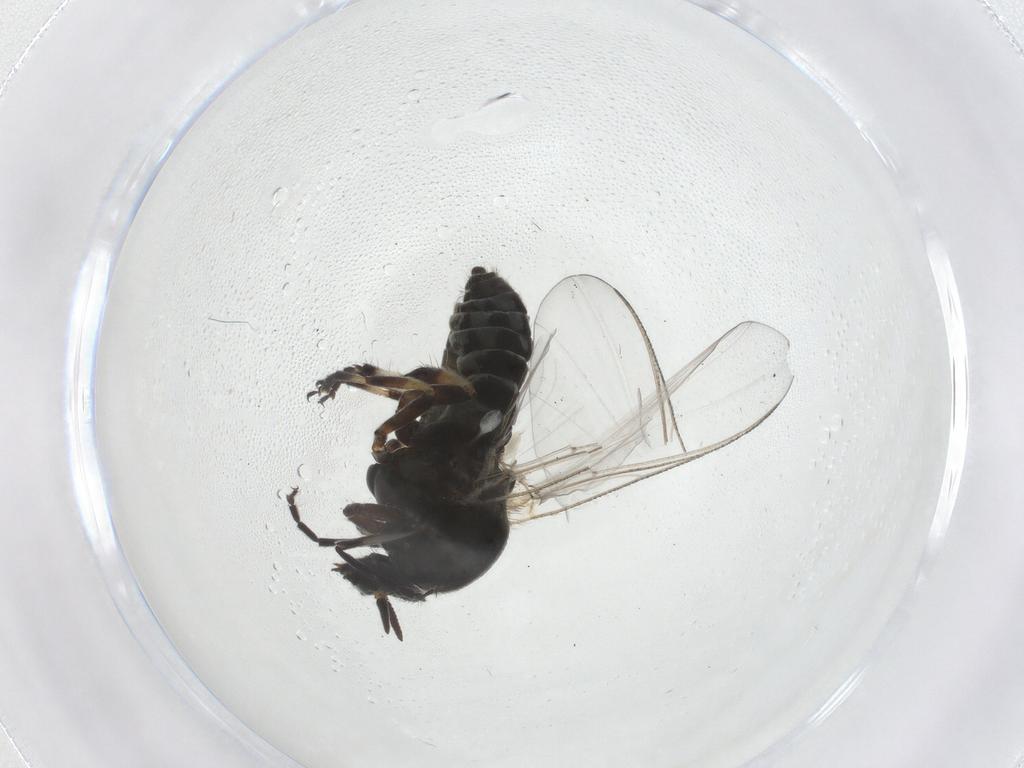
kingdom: Animalia
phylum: Arthropoda
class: Insecta
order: Diptera
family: Simuliidae
